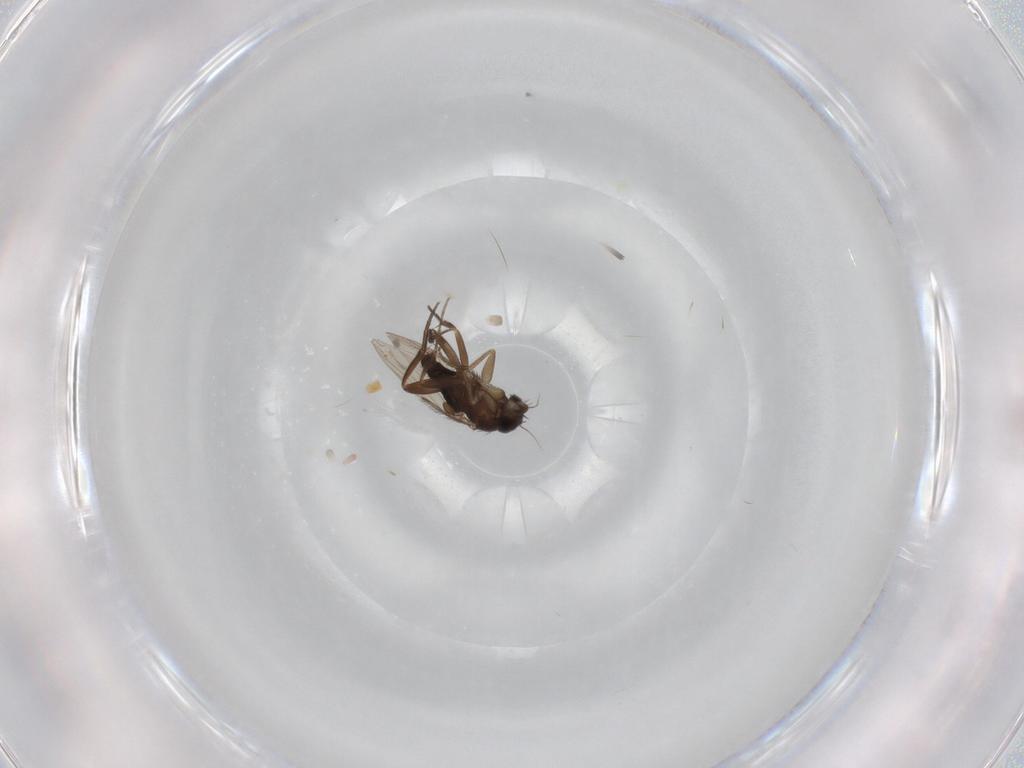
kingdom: Animalia
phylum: Arthropoda
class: Insecta
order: Diptera
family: Phoridae
